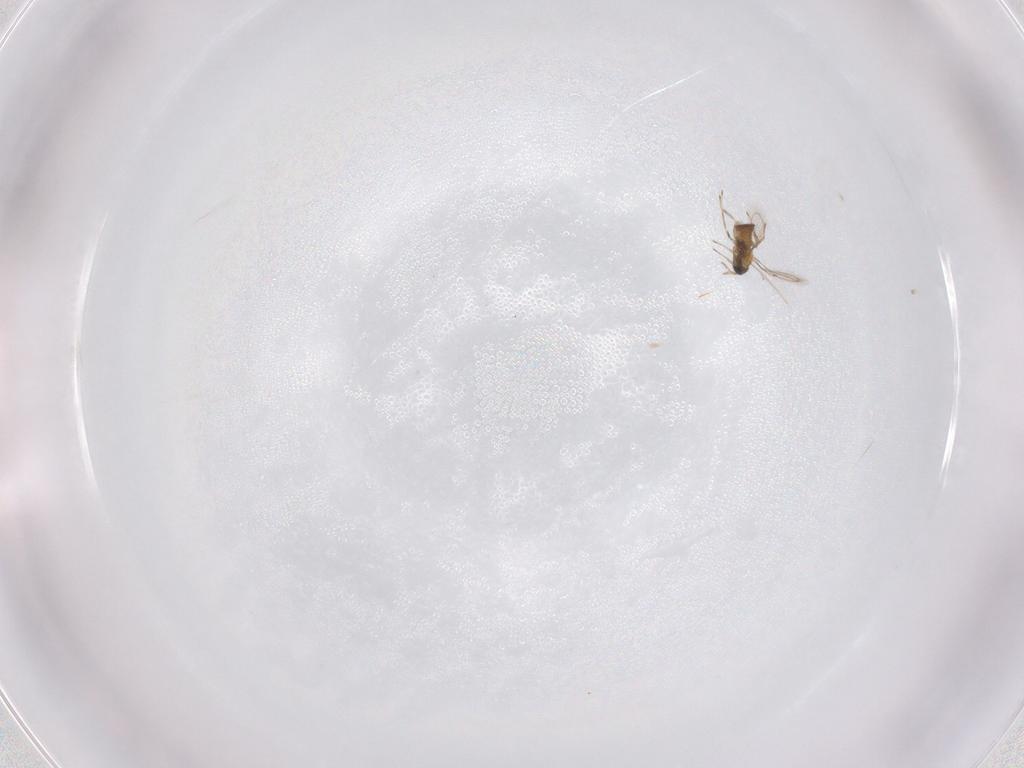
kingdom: Animalia
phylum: Arthropoda
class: Insecta
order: Hymenoptera
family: Trichogrammatidae
